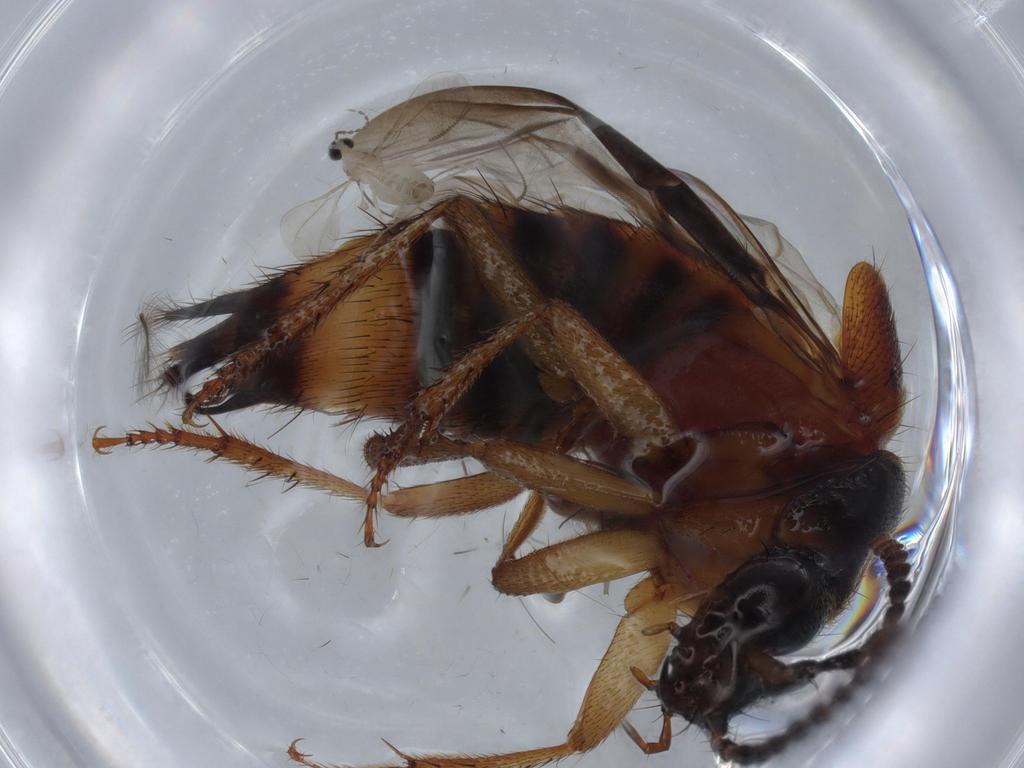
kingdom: Animalia
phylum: Arthropoda
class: Insecta
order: Coleoptera
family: Staphylinidae
